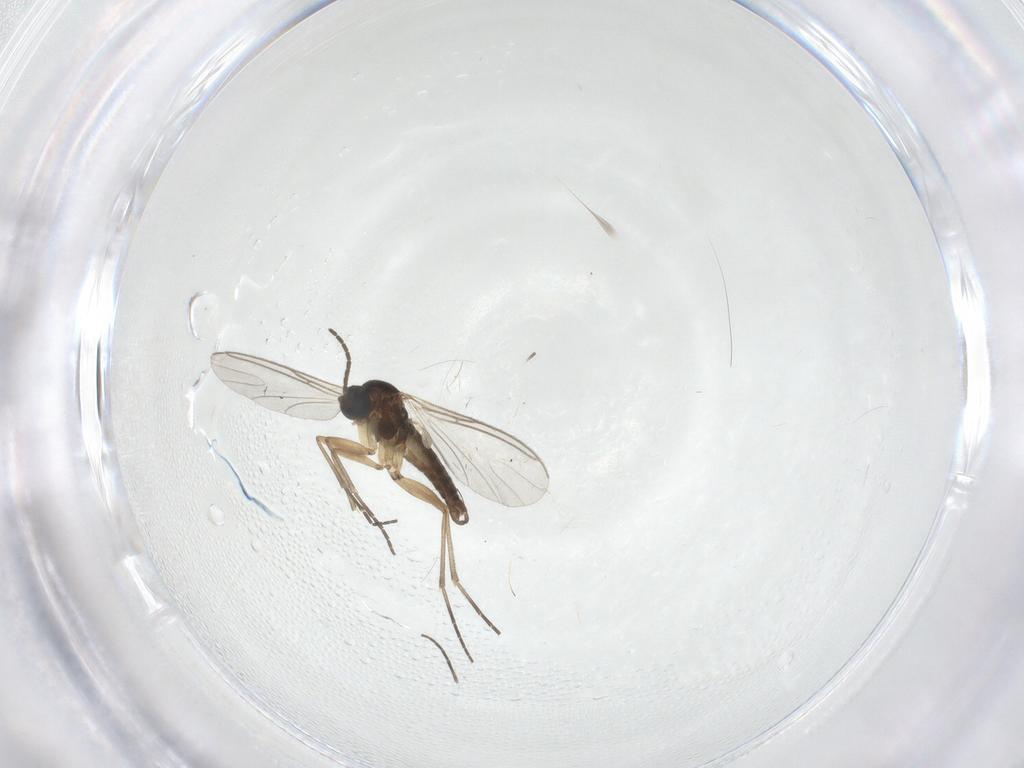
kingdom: Animalia
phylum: Arthropoda
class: Insecta
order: Diptera
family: Sciaridae
